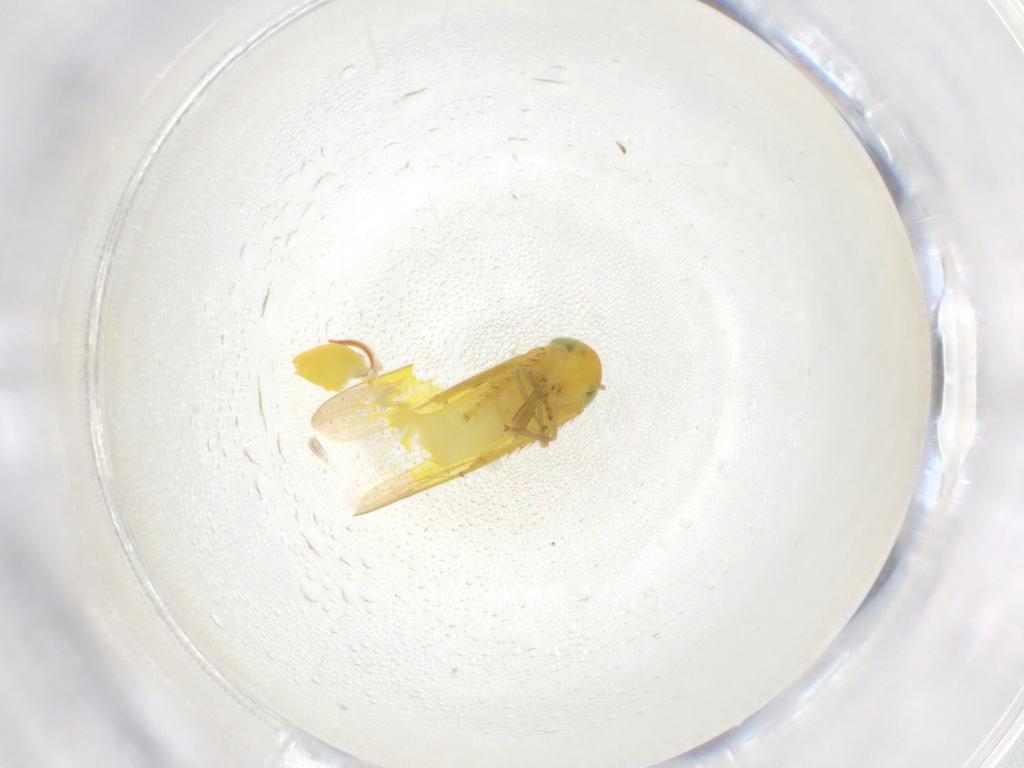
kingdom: Animalia
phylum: Arthropoda
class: Insecta
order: Hemiptera
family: Cicadellidae
